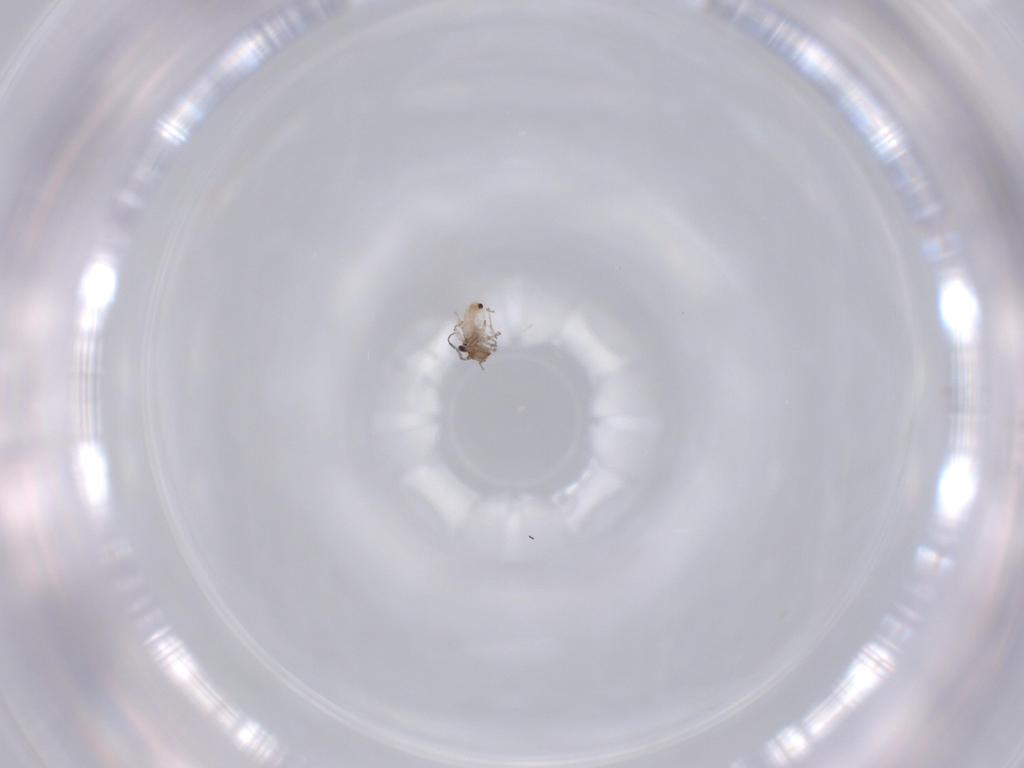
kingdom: Animalia
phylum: Arthropoda
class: Insecta
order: Psocodea
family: Lepidopsocidae
